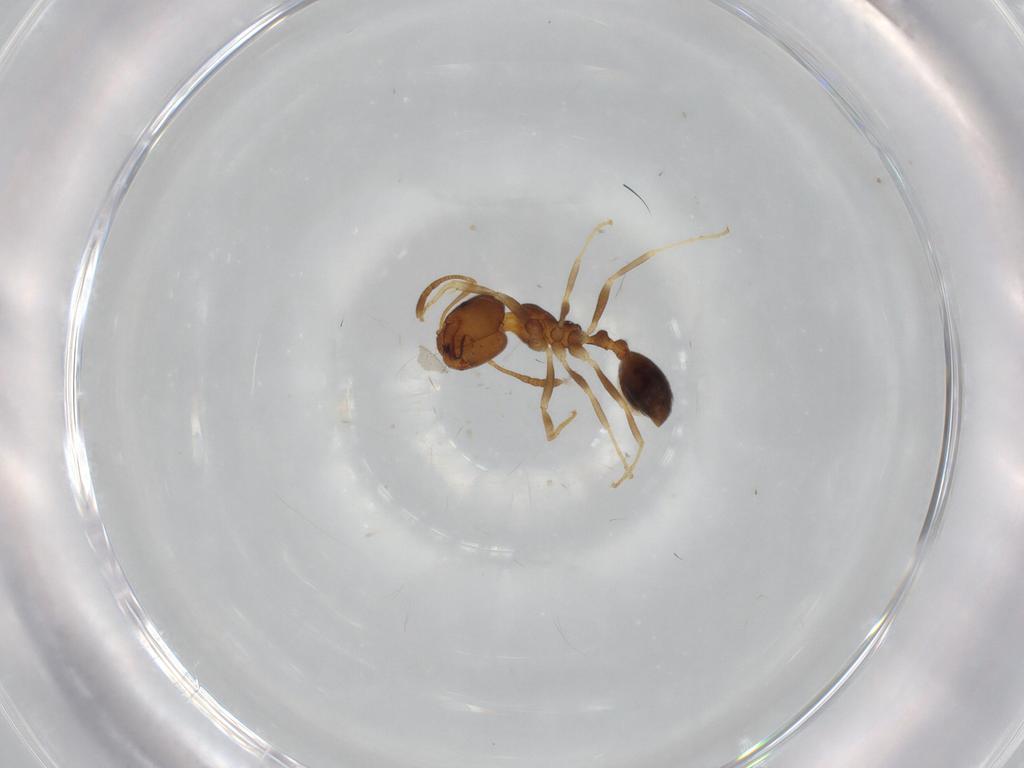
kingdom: Animalia
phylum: Arthropoda
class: Insecta
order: Hymenoptera
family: Formicidae
